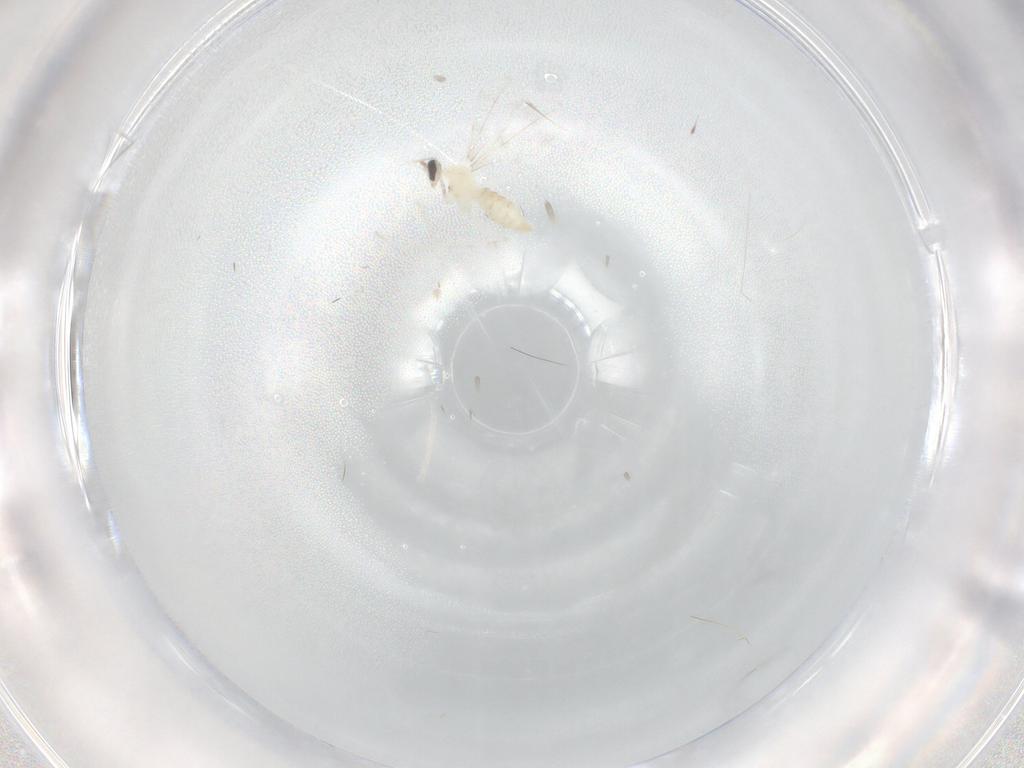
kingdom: Animalia
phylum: Arthropoda
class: Insecta
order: Diptera
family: Cecidomyiidae
